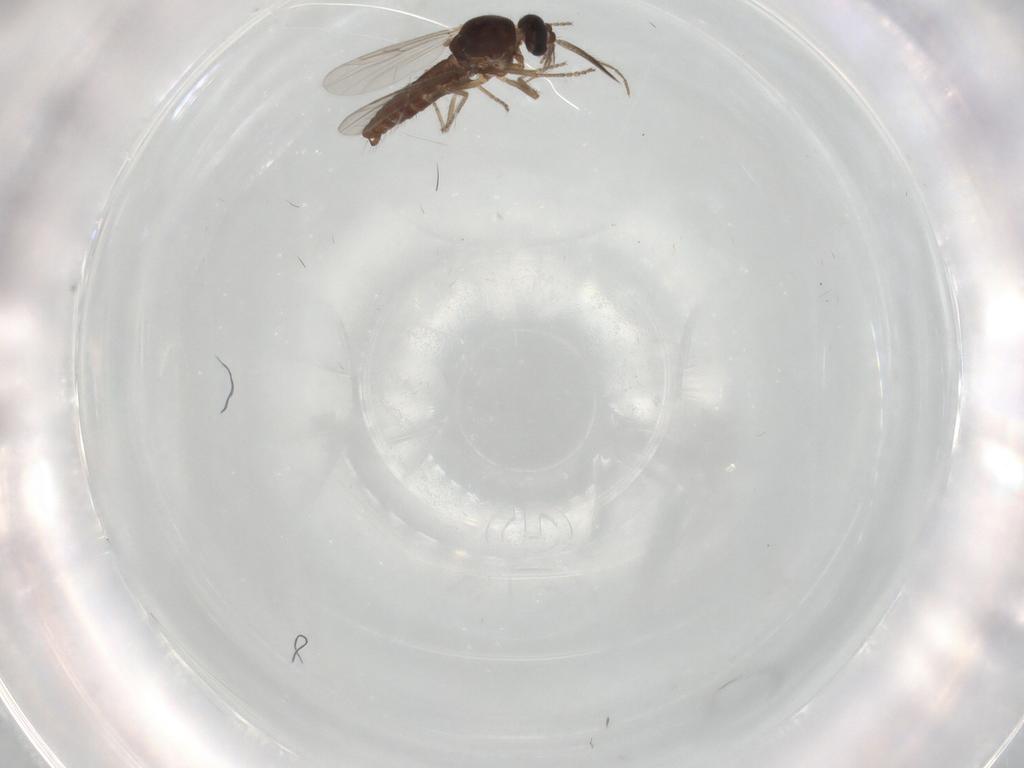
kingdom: Animalia
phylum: Arthropoda
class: Insecta
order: Diptera
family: Ceratopogonidae
